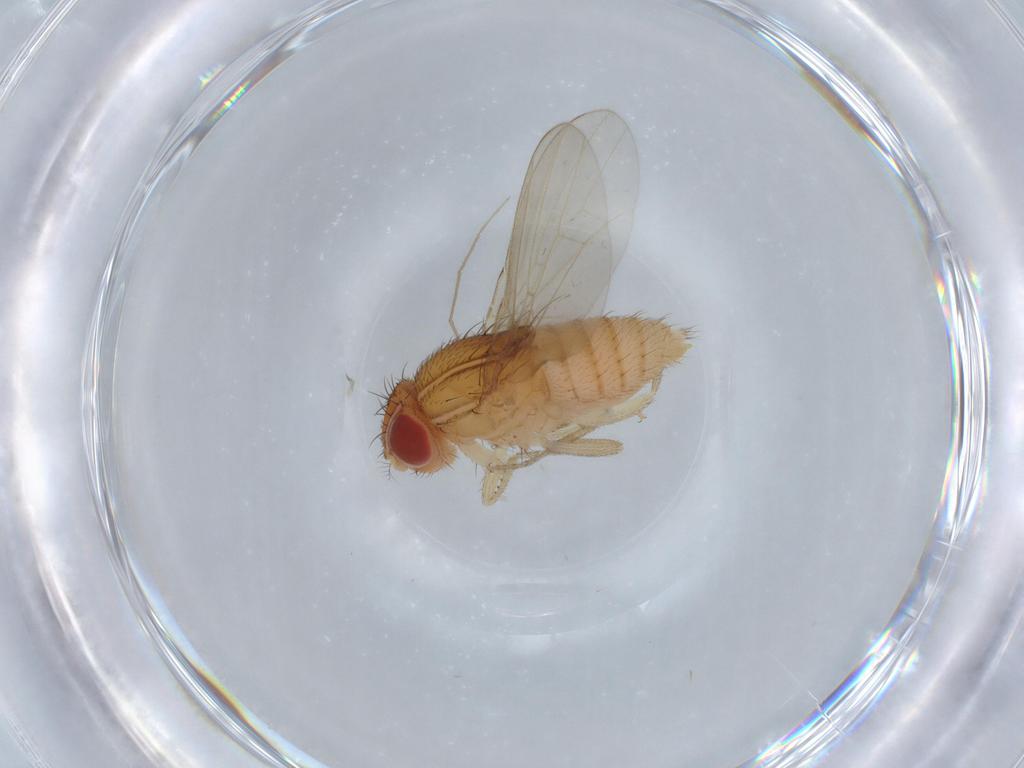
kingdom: Animalia
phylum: Arthropoda
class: Insecta
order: Diptera
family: Drosophilidae
